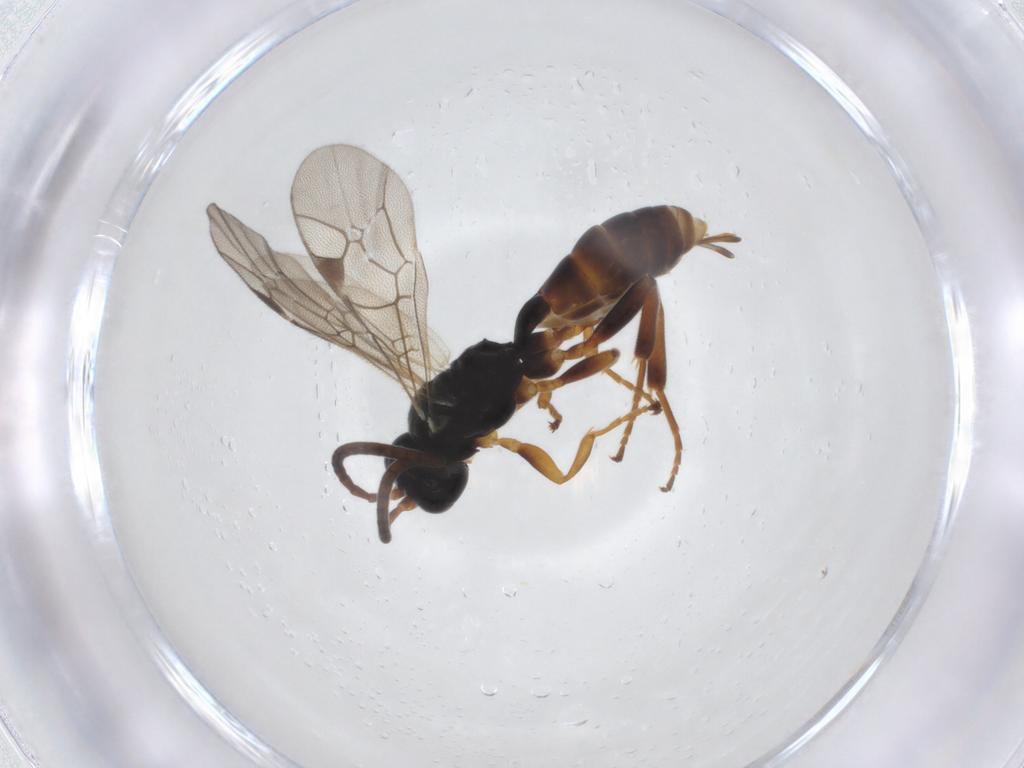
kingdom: Animalia
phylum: Arthropoda
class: Insecta
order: Hymenoptera
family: Ichneumonidae
